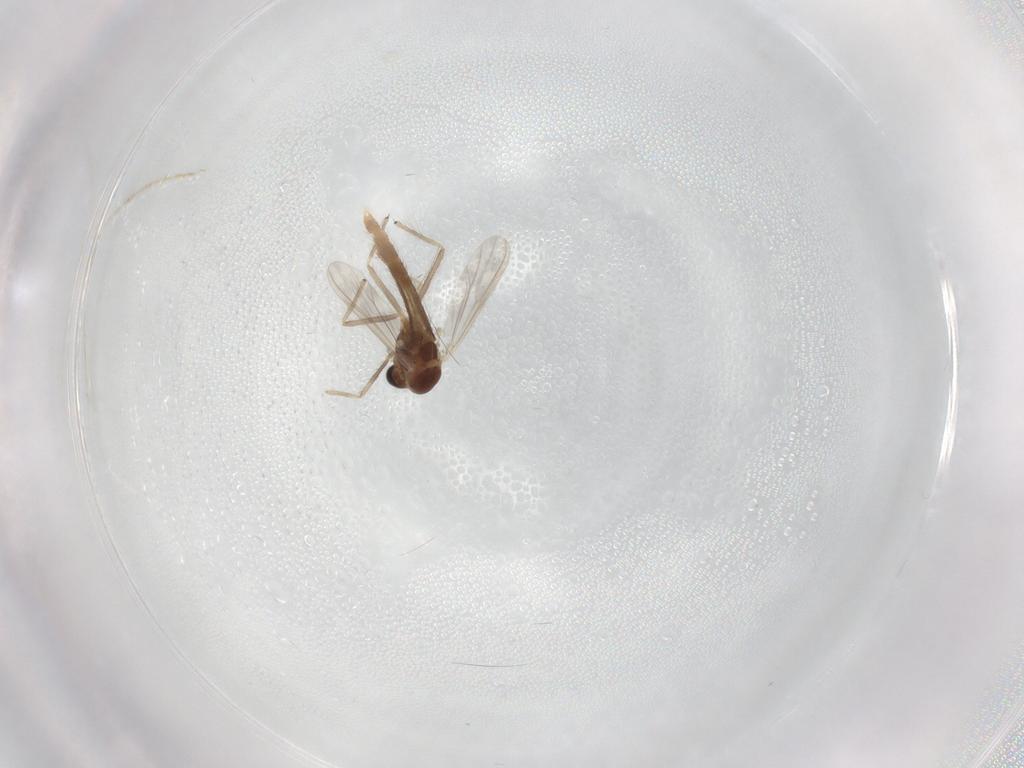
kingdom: Animalia
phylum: Arthropoda
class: Insecta
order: Diptera
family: Chironomidae
